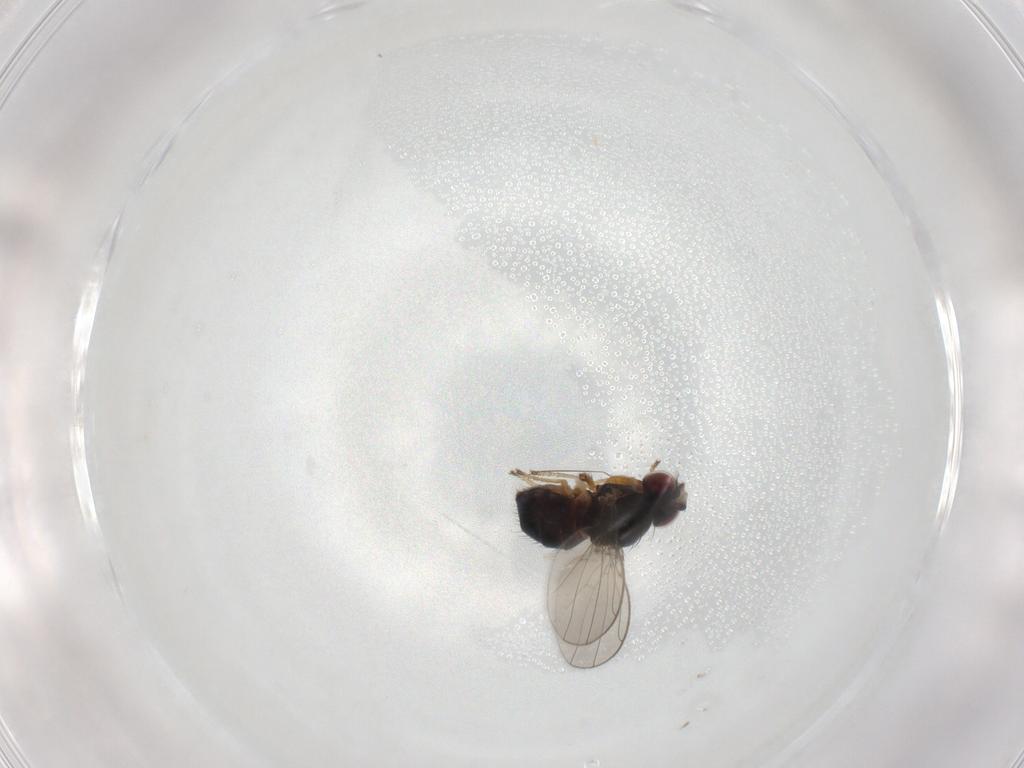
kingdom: Animalia
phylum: Arthropoda
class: Insecta
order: Diptera
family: Ephydridae
